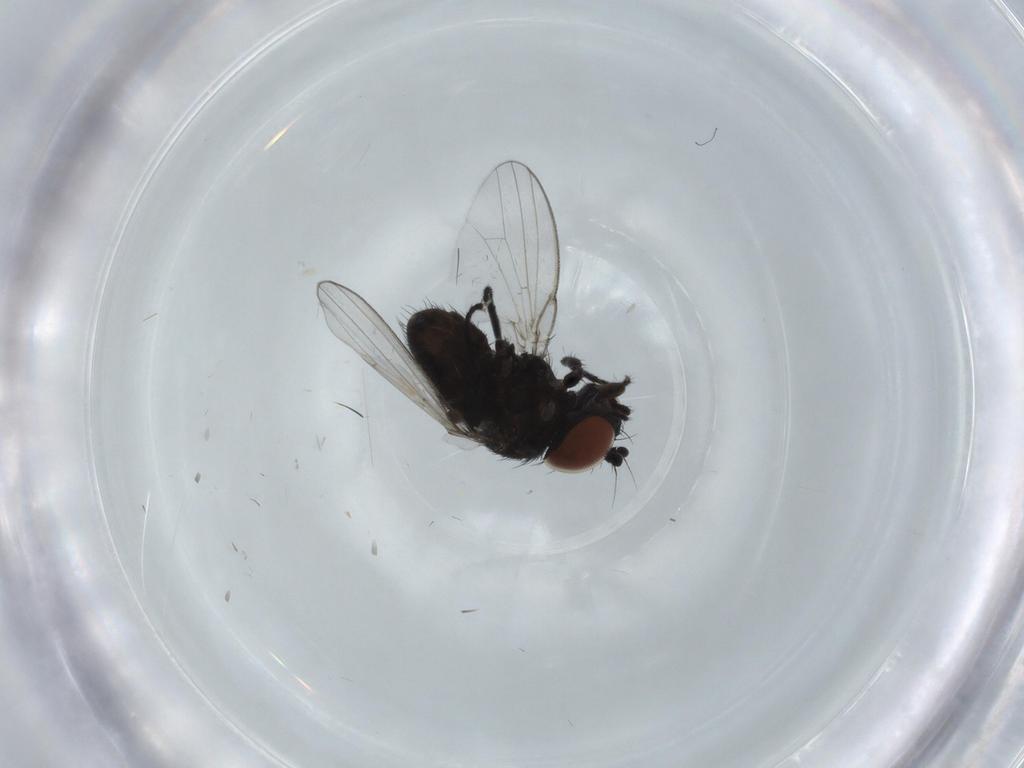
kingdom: Animalia
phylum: Arthropoda
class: Insecta
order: Diptera
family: Milichiidae
